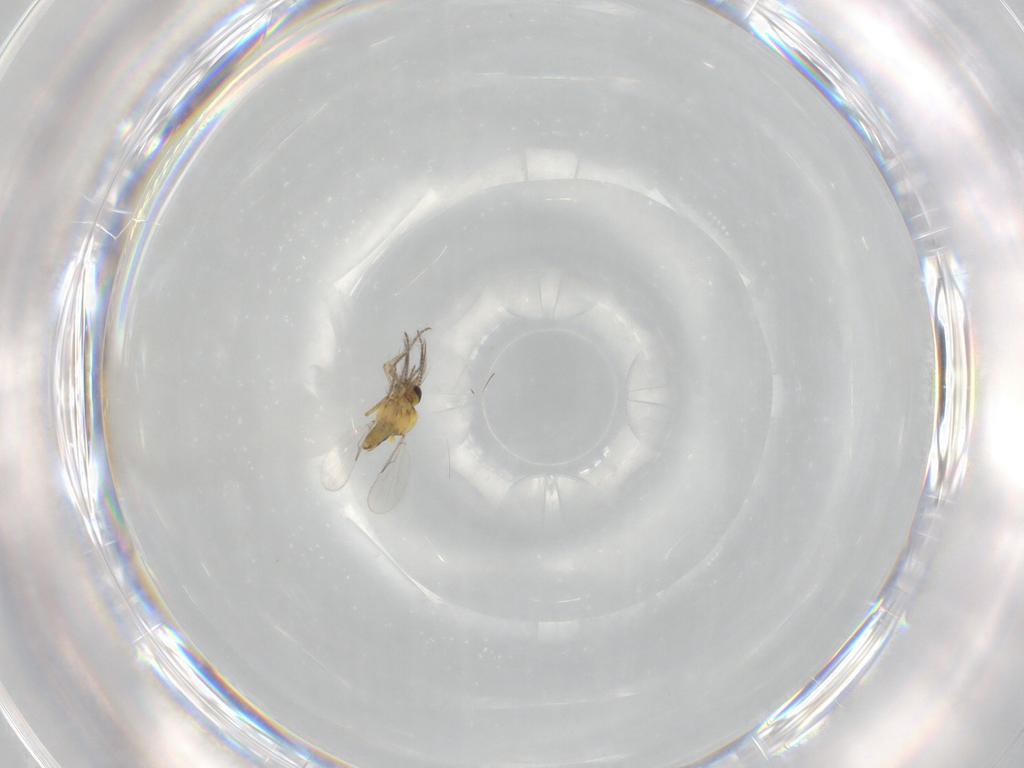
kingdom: Animalia
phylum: Arthropoda
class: Insecta
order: Diptera
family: Ceratopogonidae
